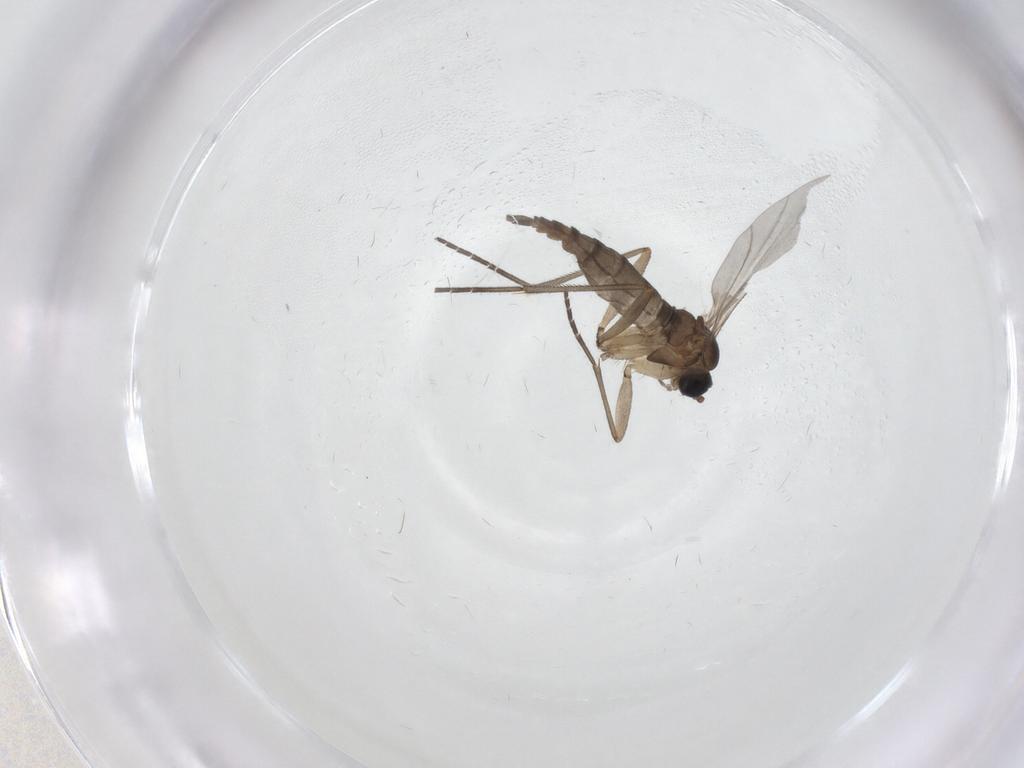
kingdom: Animalia
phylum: Arthropoda
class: Insecta
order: Diptera
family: Sciaridae
